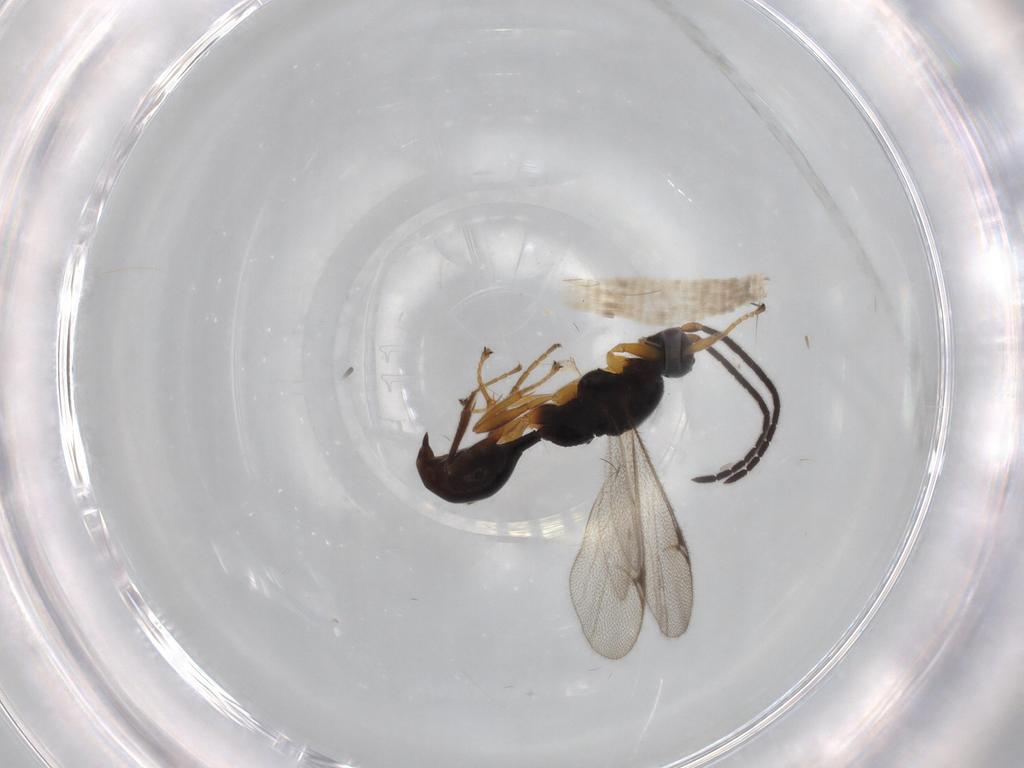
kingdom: Animalia
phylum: Arthropoda
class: Insecta
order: Hymenoptera
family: Proctotrupidae
